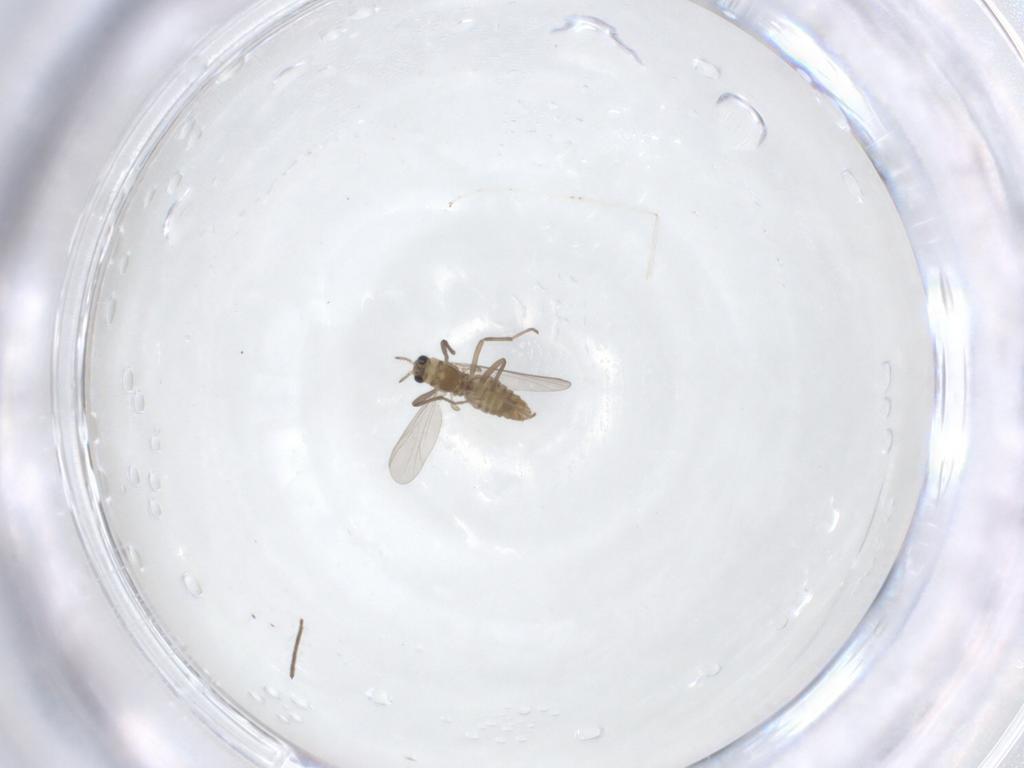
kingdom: Animalia
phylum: Arthropoda
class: Insecta
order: Diptera
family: Chironomidae
